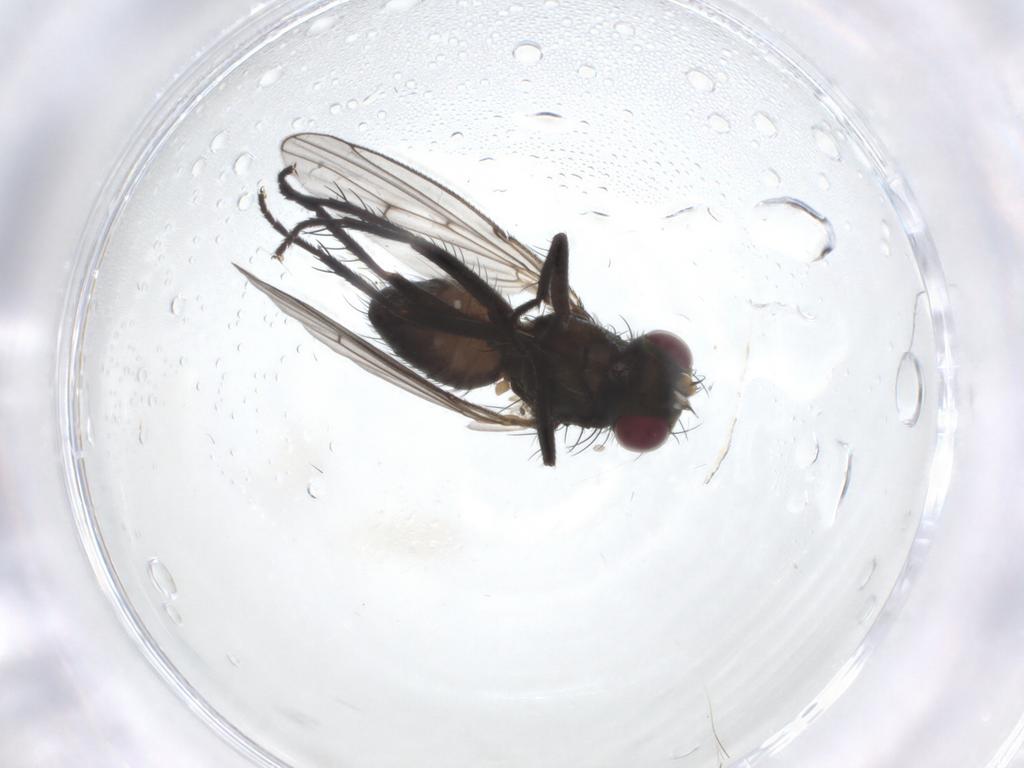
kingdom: Animalia
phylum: Arthropoda
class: Insecta
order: Diptera
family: Muscidae
